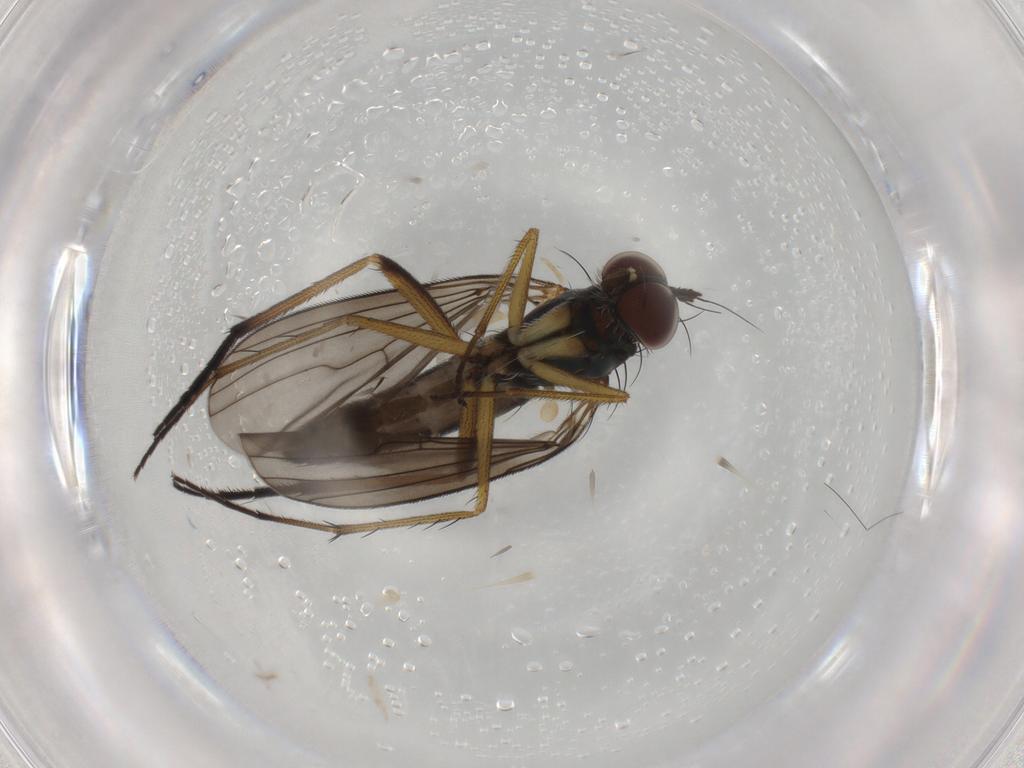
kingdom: Animalia
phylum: Arthropoda
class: Insecta
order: Diptera
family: Dolichopodidae
